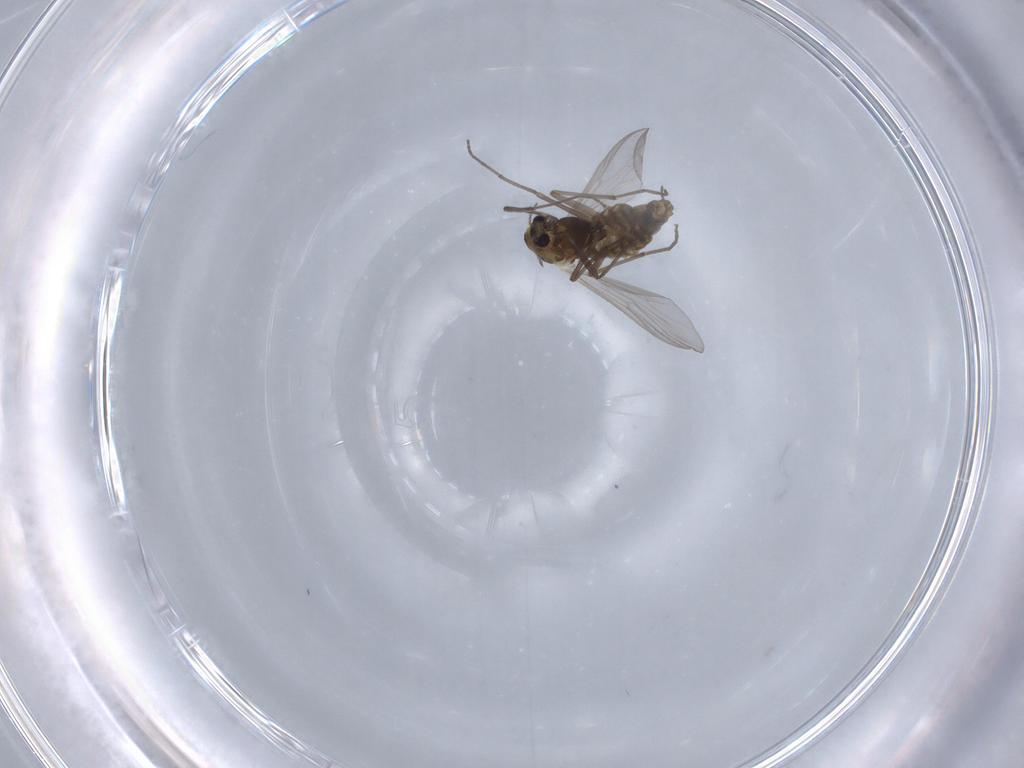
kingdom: Animalia
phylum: Arthropoda
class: Insecta
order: Diptera
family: Chironomidae
